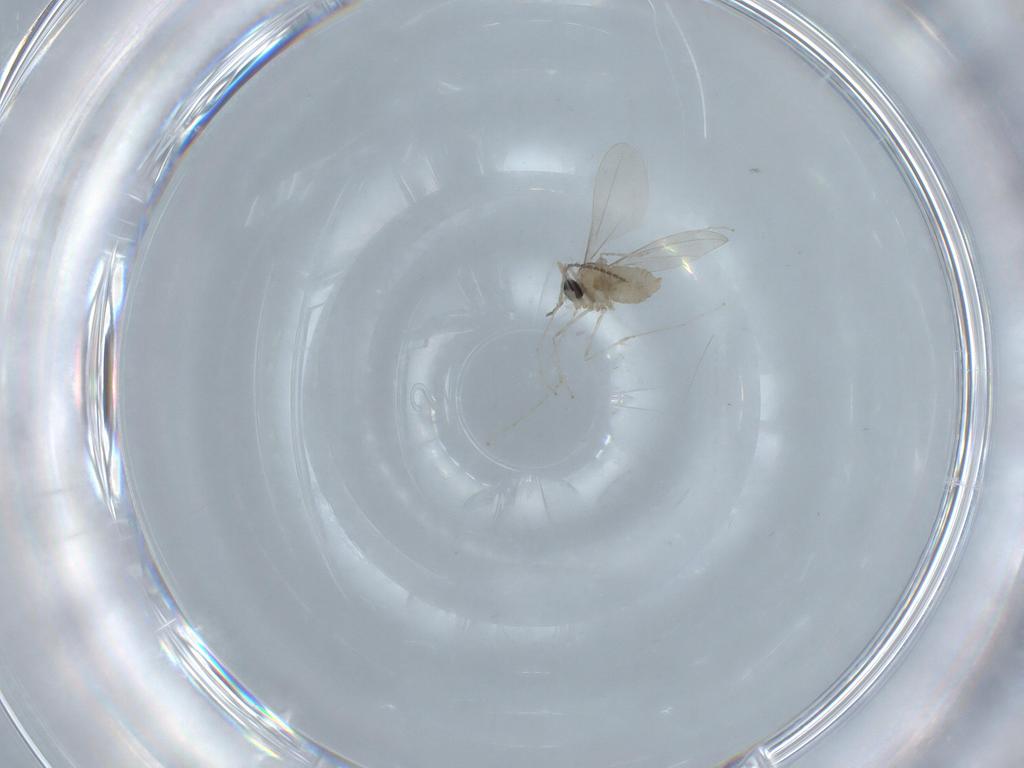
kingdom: Animalia
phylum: Arthropoda
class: Insecta
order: Diptera
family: Cecidomyiidae
